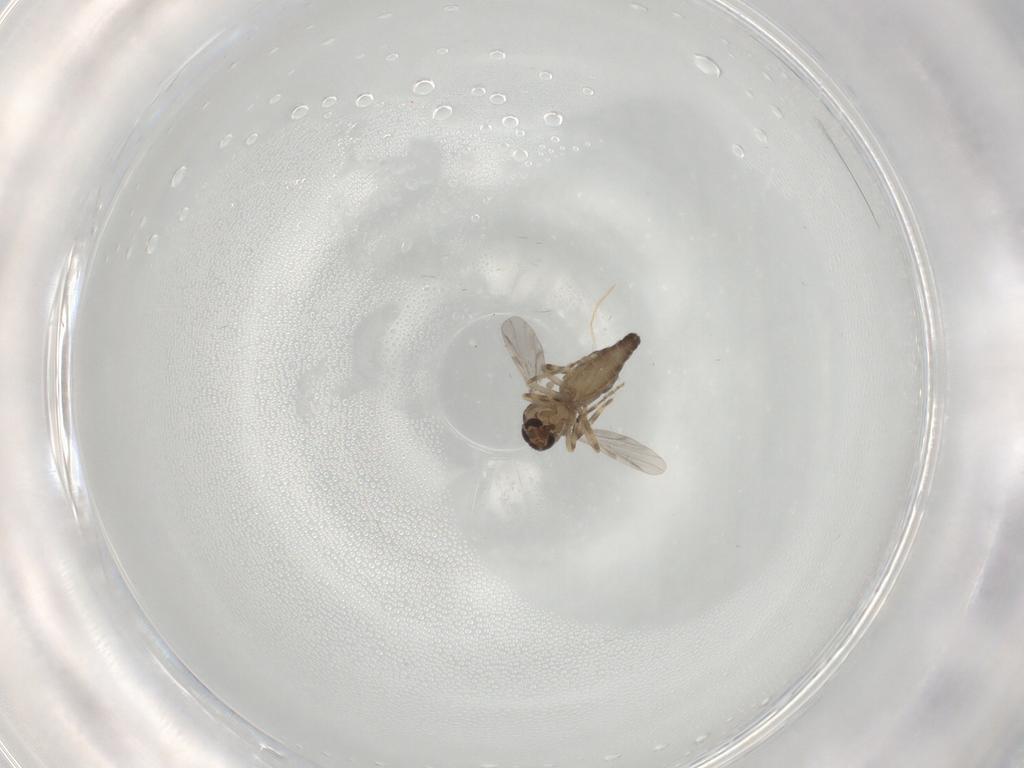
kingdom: Animalia
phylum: Arthropoda
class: Insecta
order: Diptera
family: Ceratopogonidae
